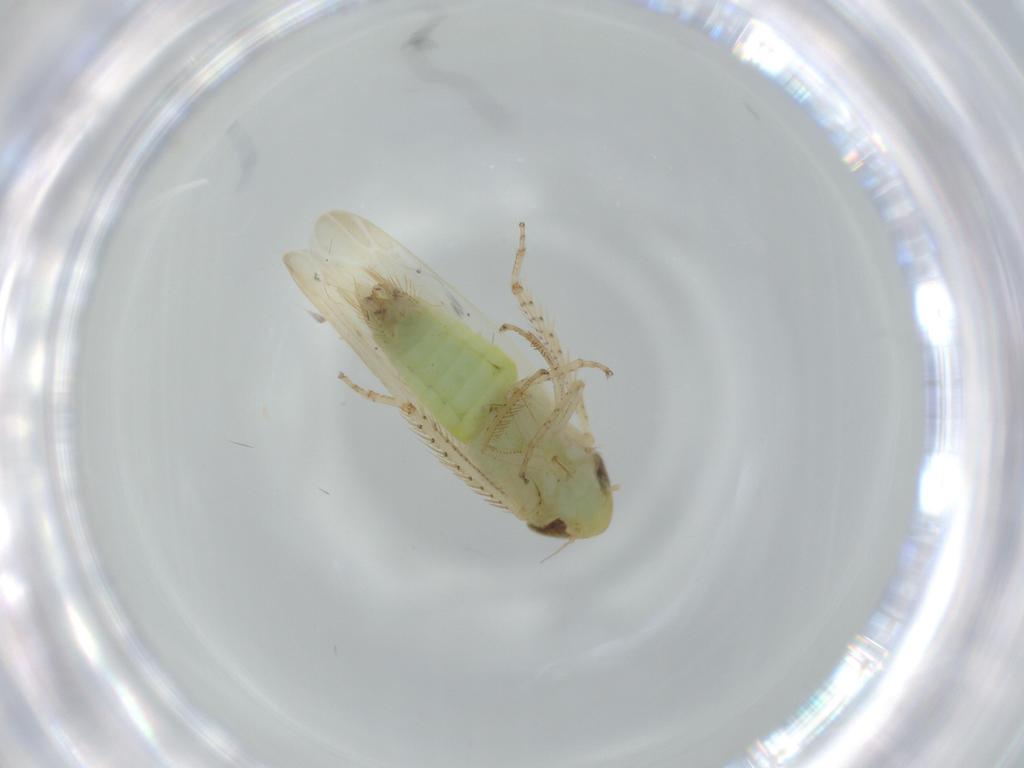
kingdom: Animalia
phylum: Arthropoda
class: Insecta
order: Hemiptera
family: Cicadellidae
